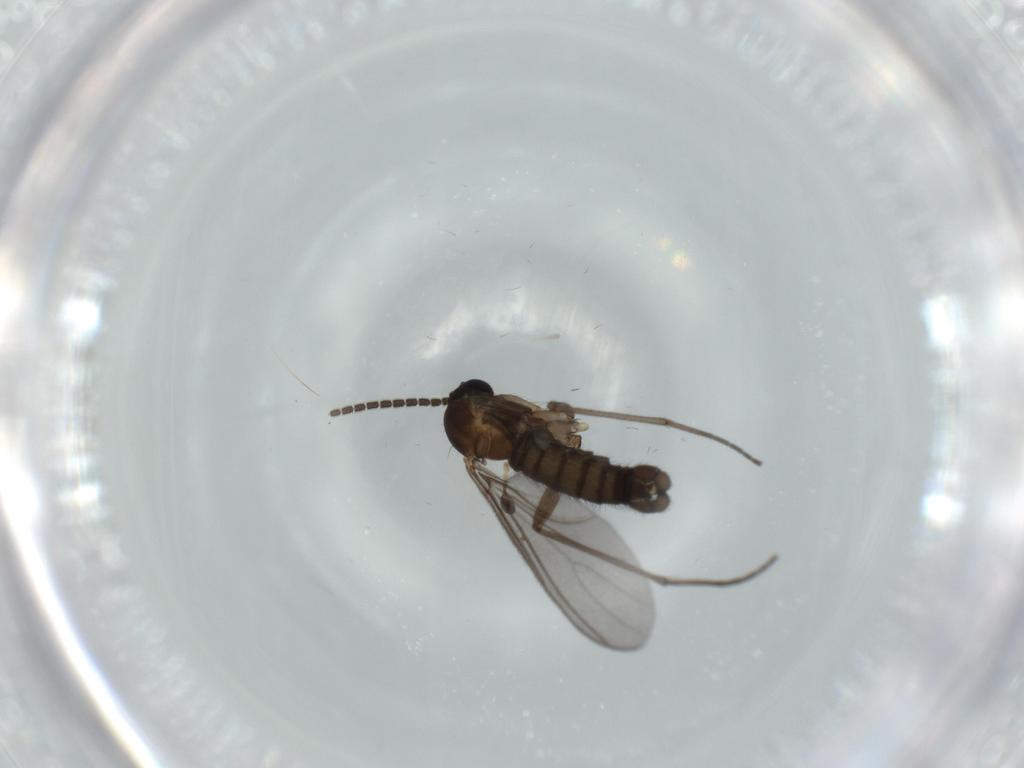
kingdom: Animalia
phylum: Arthropoda
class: Insecta
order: Diptera
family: Sciaridae
